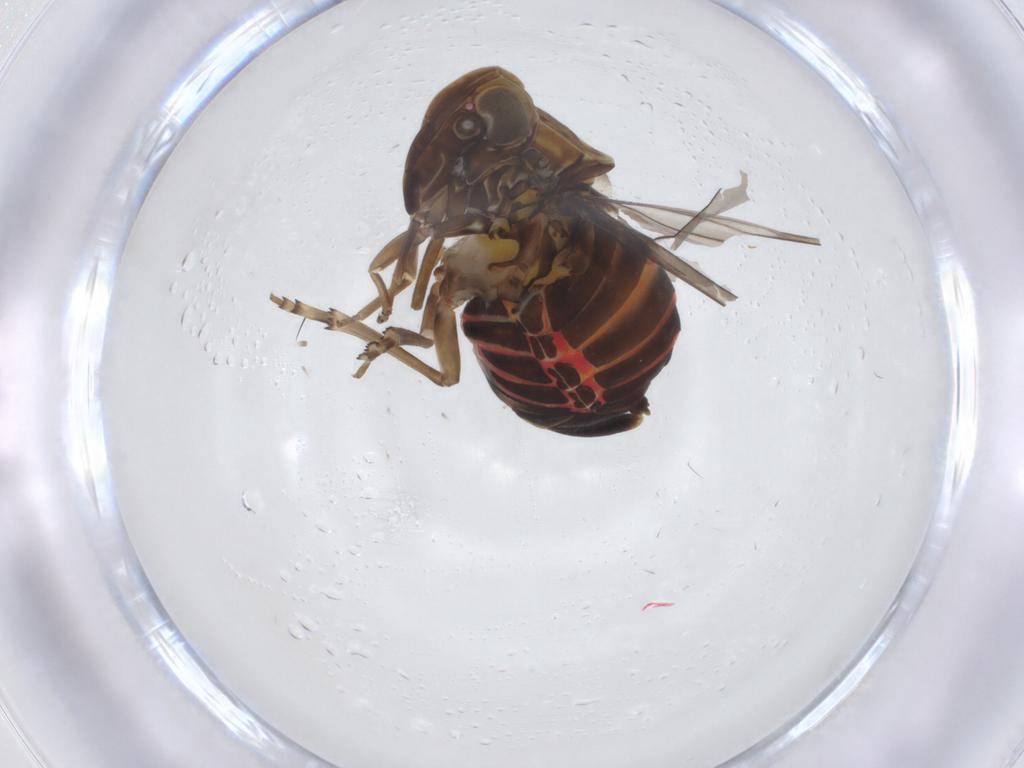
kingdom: Animalia
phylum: Arthropoda
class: Insecta
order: Hemiptera
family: Cixiidae
